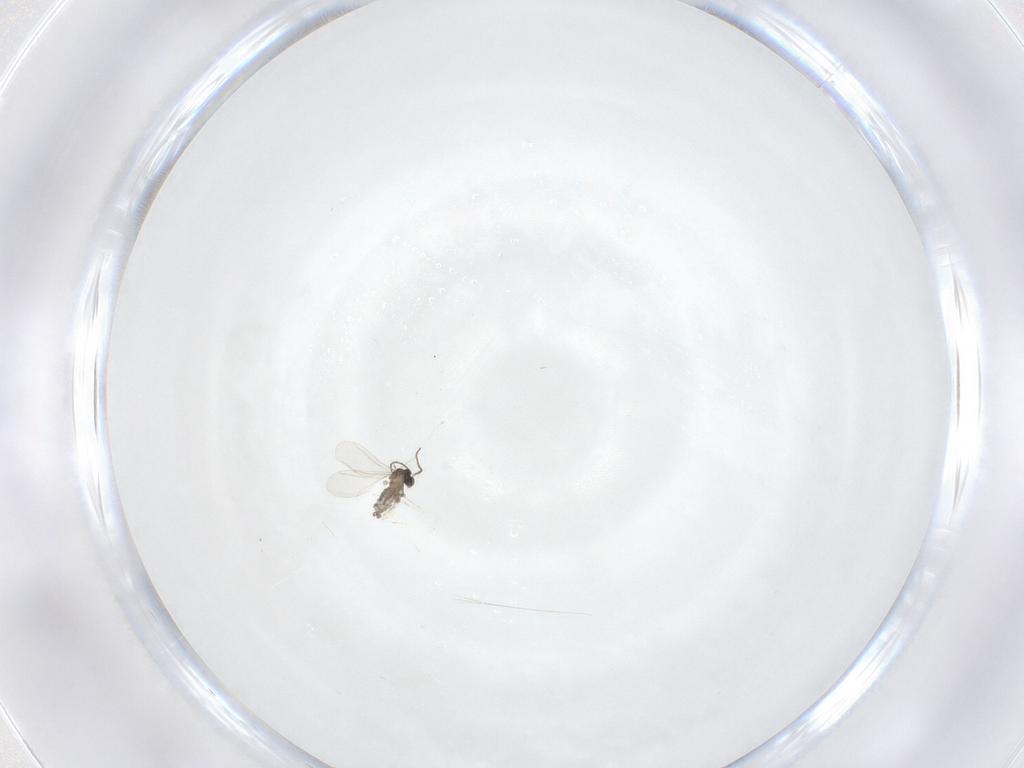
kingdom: Animalia
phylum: Arthropoda
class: Insecta
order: Diptera
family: Cecidomyiidae
